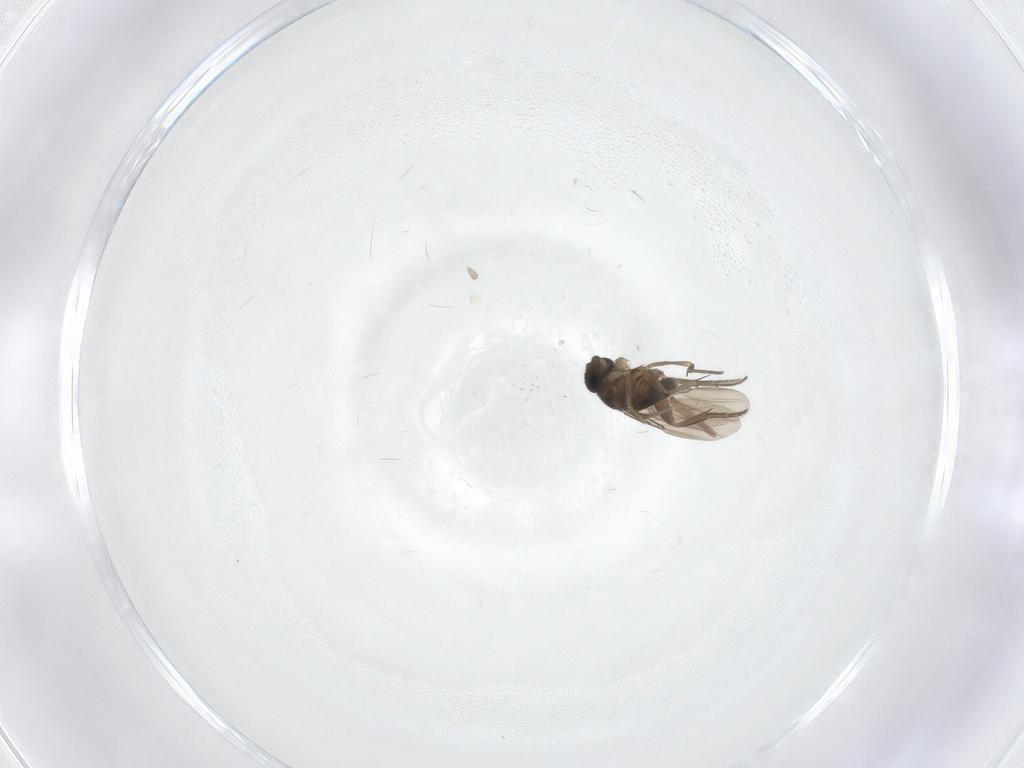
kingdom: Animalia
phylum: Arthropoda
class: Insecta
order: Diptera
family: Phoridae
